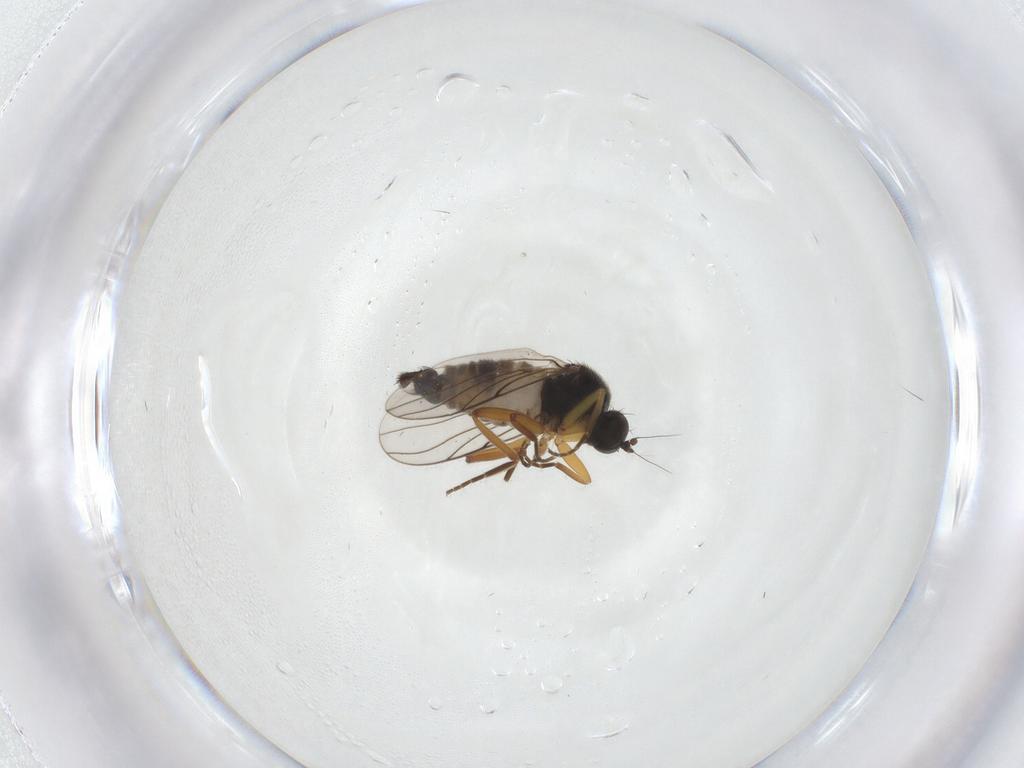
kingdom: Animalia
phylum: Arthropoda
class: Insecta
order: Diptera
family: Hybotidae
